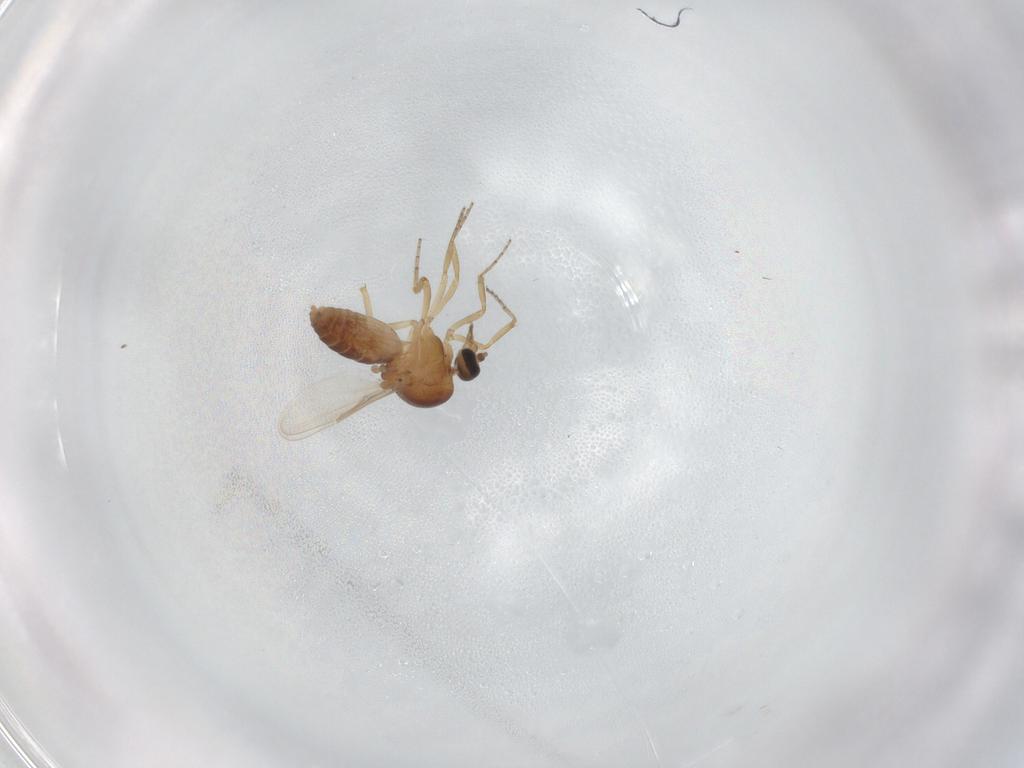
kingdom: Animalia
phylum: Arthropoda
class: Insecta
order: Diptera
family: Ceratopogonidae
